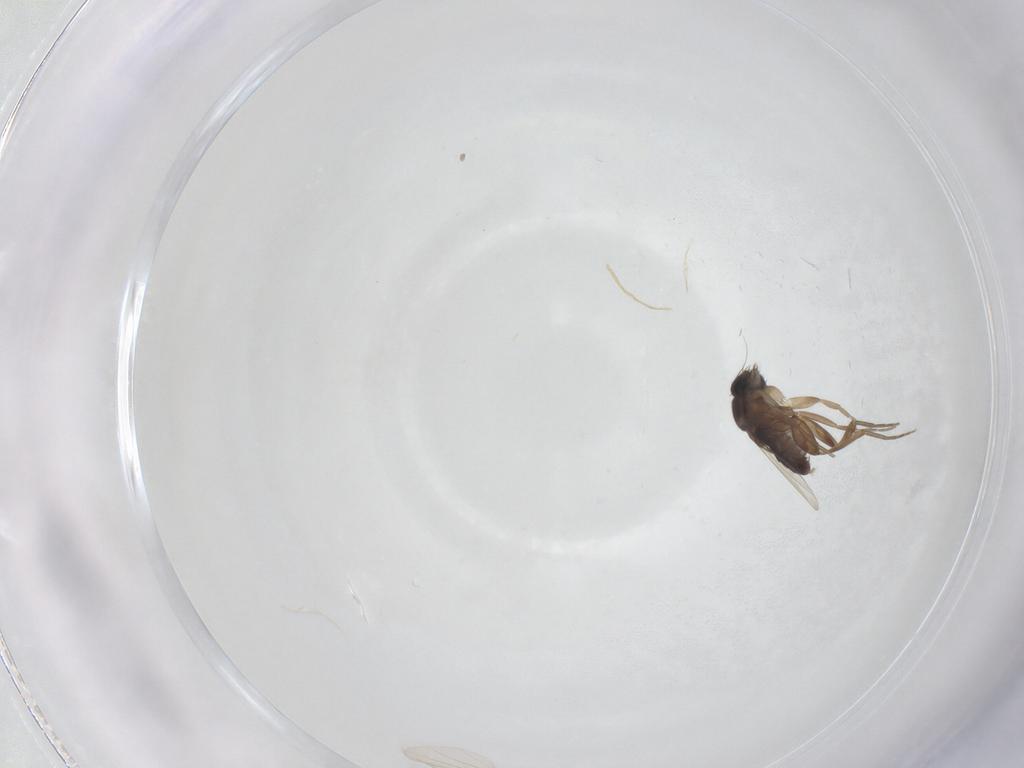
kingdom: Animalia
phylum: Arthropoda
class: Insecta
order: Diptera
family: Phoridae
